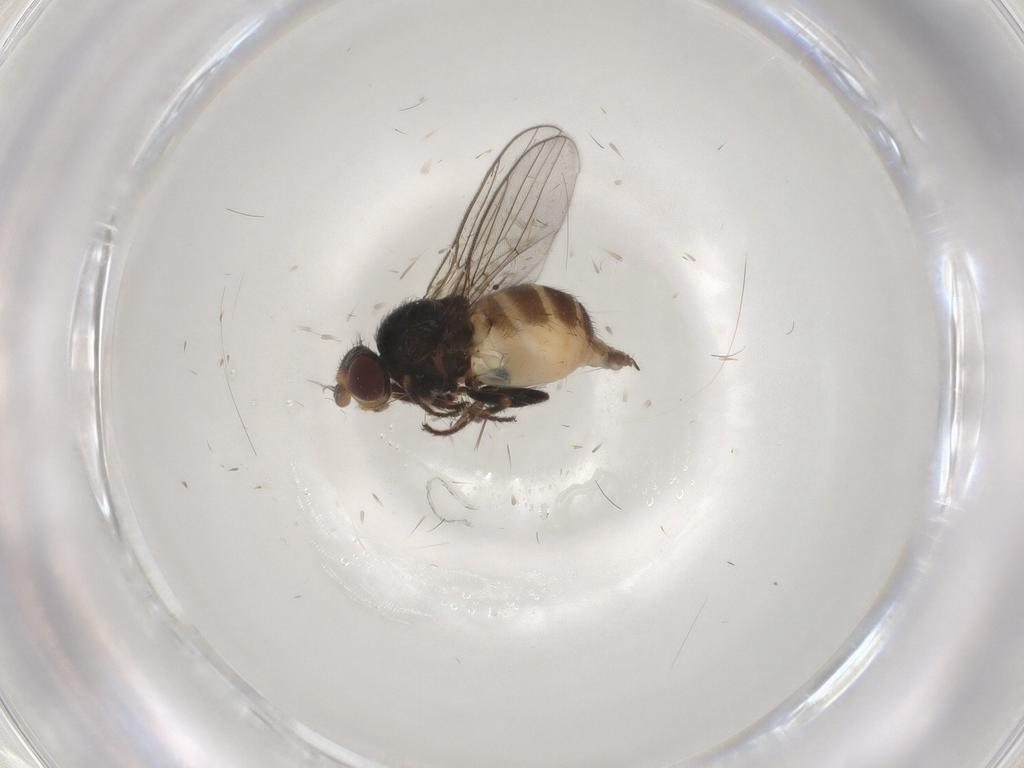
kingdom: Animalia
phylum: Arthropoda
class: Insecta
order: Diptera
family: Chloropidae
